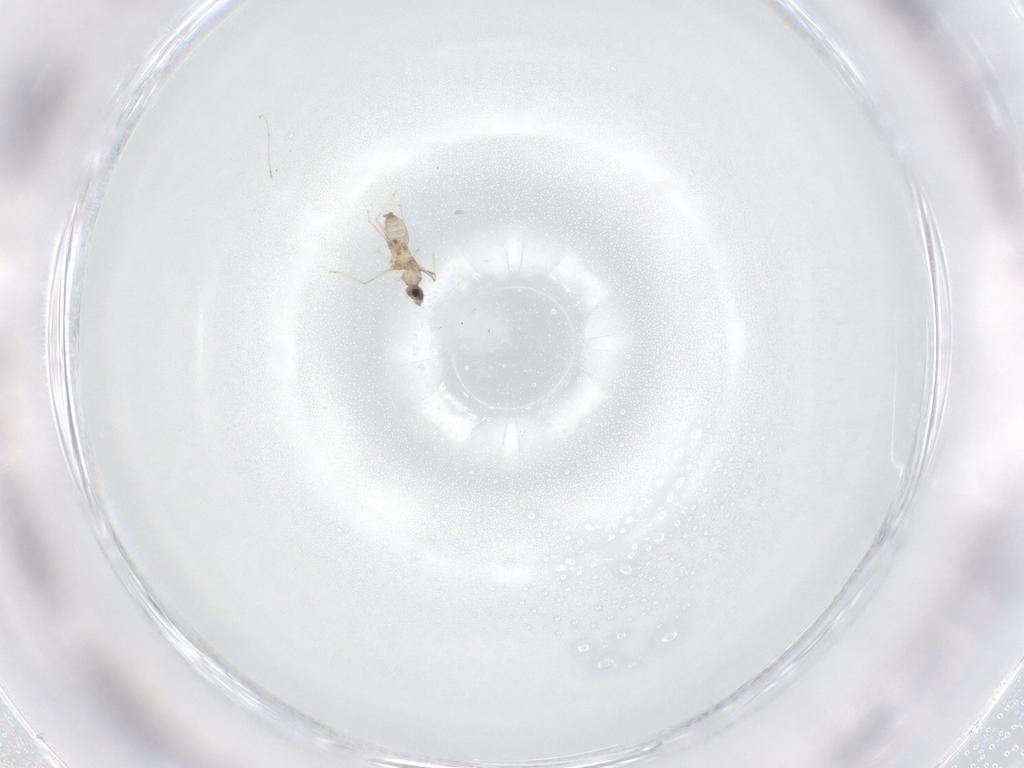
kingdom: Animalia
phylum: Arthropoda
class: Insecta
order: Diptera
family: Cecidomyiidae
